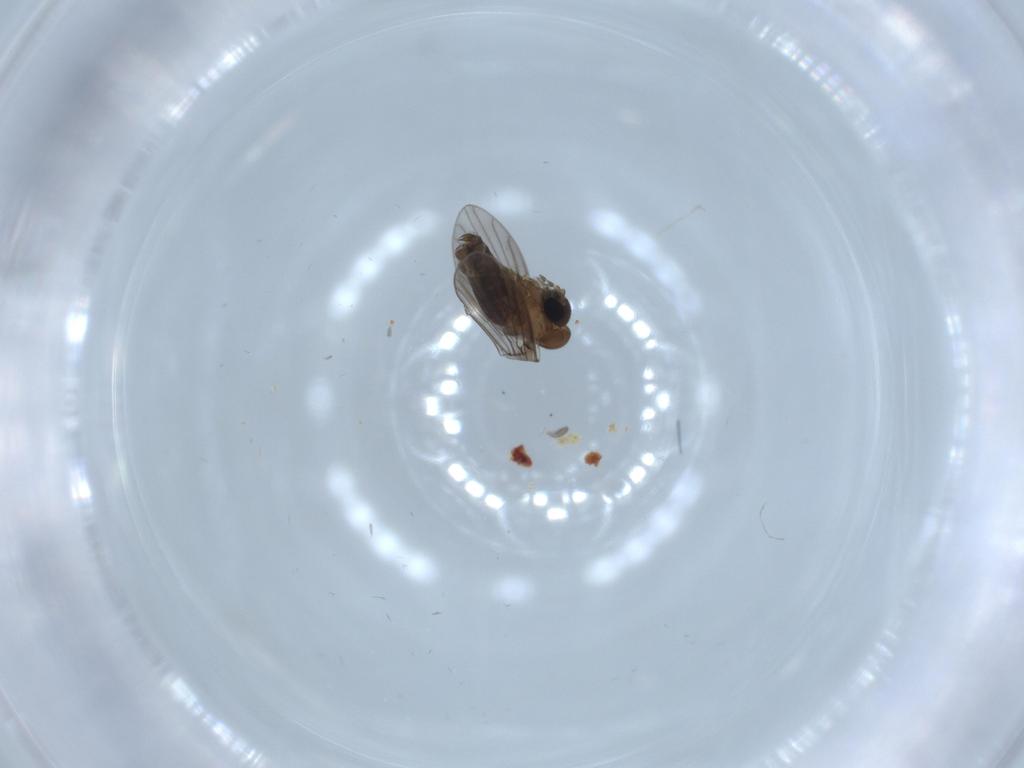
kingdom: Animalia
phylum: Arthropoda
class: Insecta
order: Diptera
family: Psychodidae
